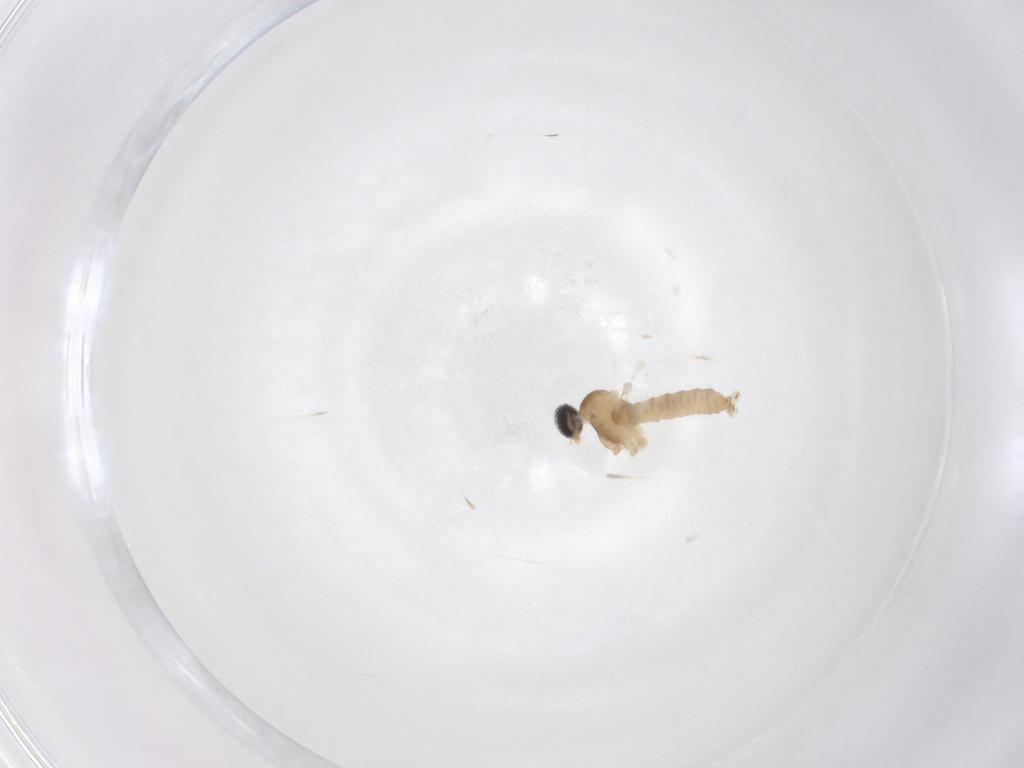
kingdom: Animalia
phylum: Arthropoda
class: Insecta
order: Diptera
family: Cecidomyiidae
